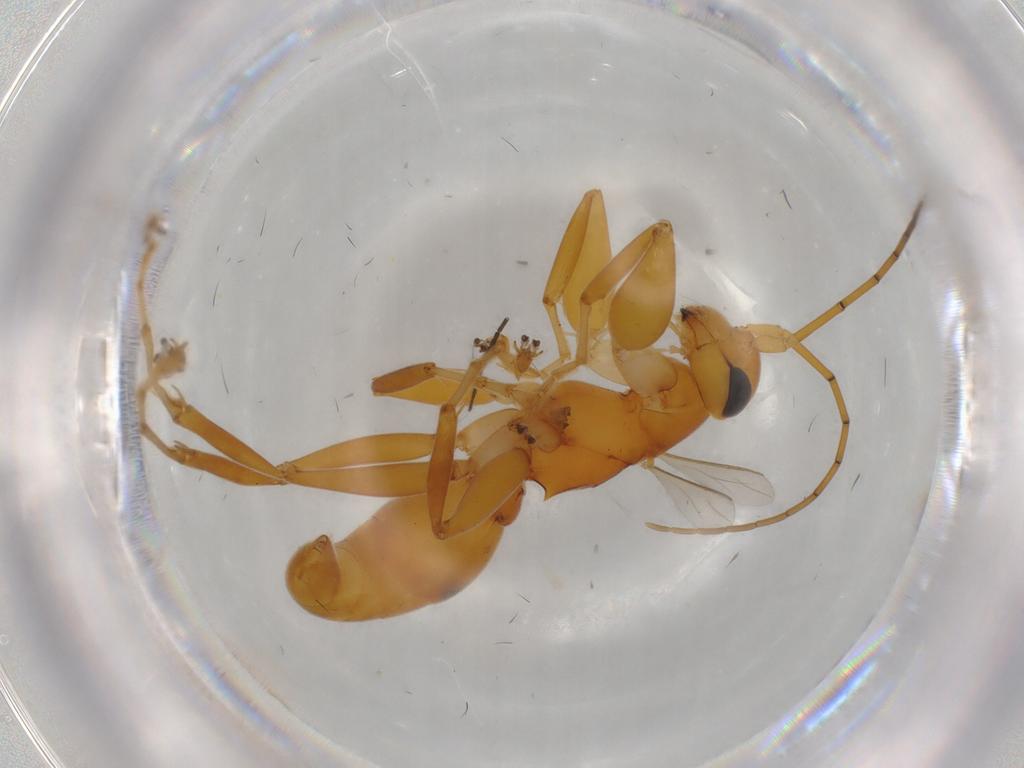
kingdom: Animalia
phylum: Arthropoda
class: Insecta
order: Hymenoptera
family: Rhopalosomatidae
